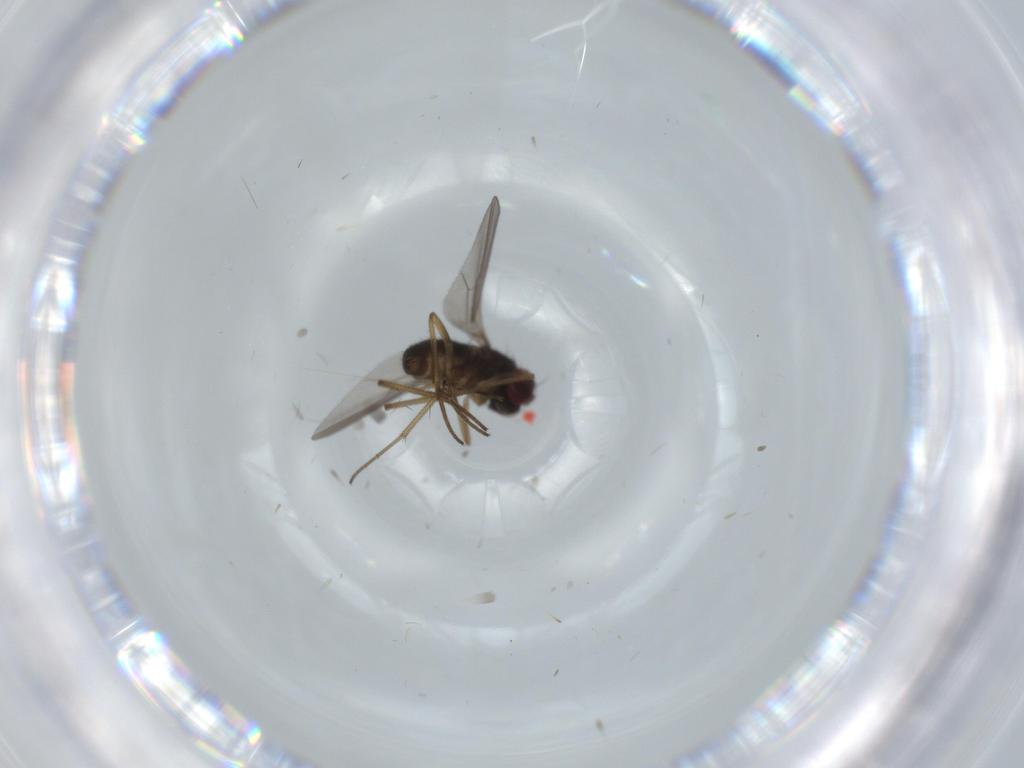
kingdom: Animalia
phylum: Arthropoda
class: Insecta
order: Diptera
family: Dolichopodidae
